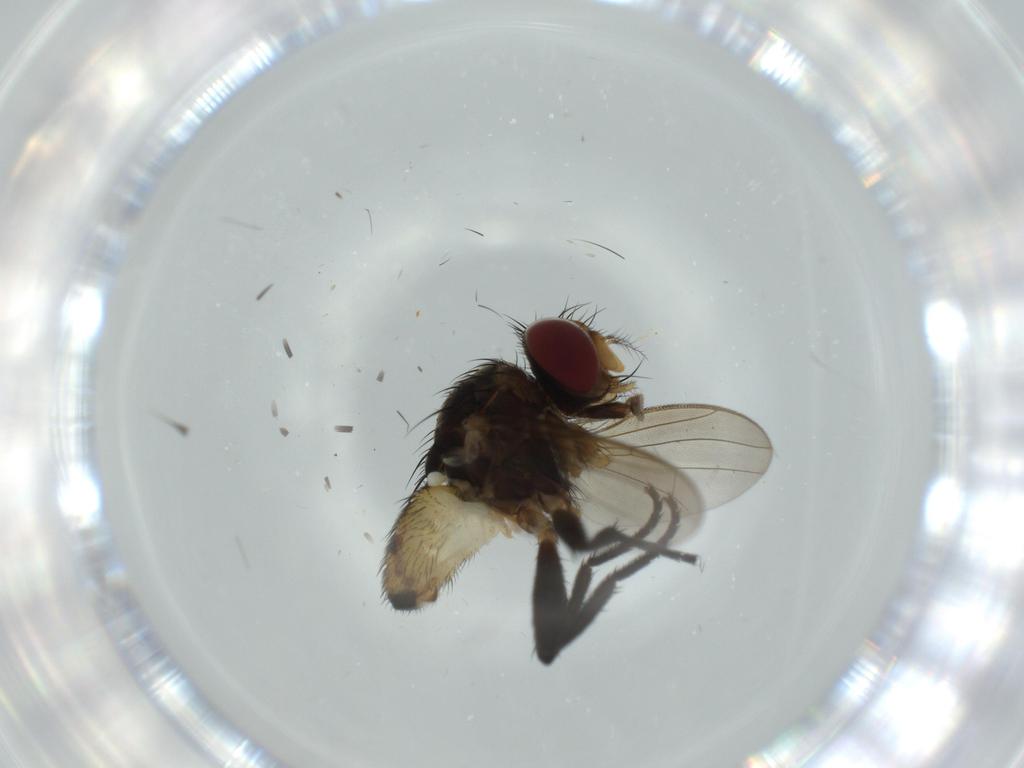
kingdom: Animalia
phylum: Arthropoda
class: Insecta
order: Diptera
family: Anthomyiidae
